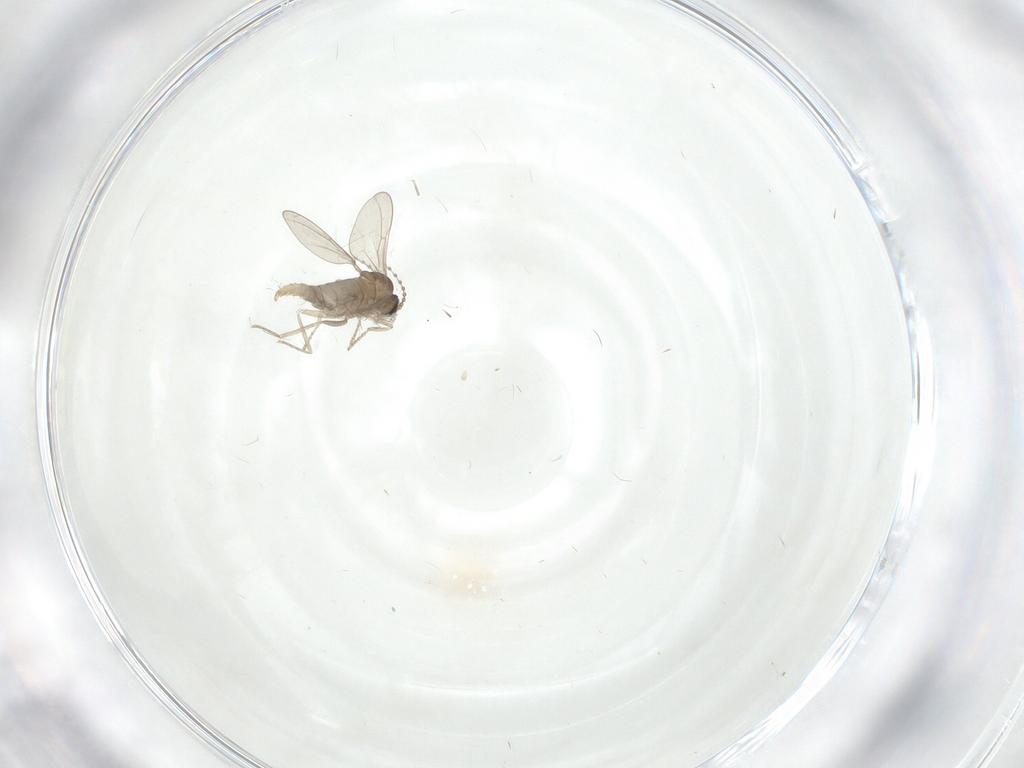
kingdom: Animalia
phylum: Arthropoda
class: Insecta
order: Diptera
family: Cecidomyiidae
